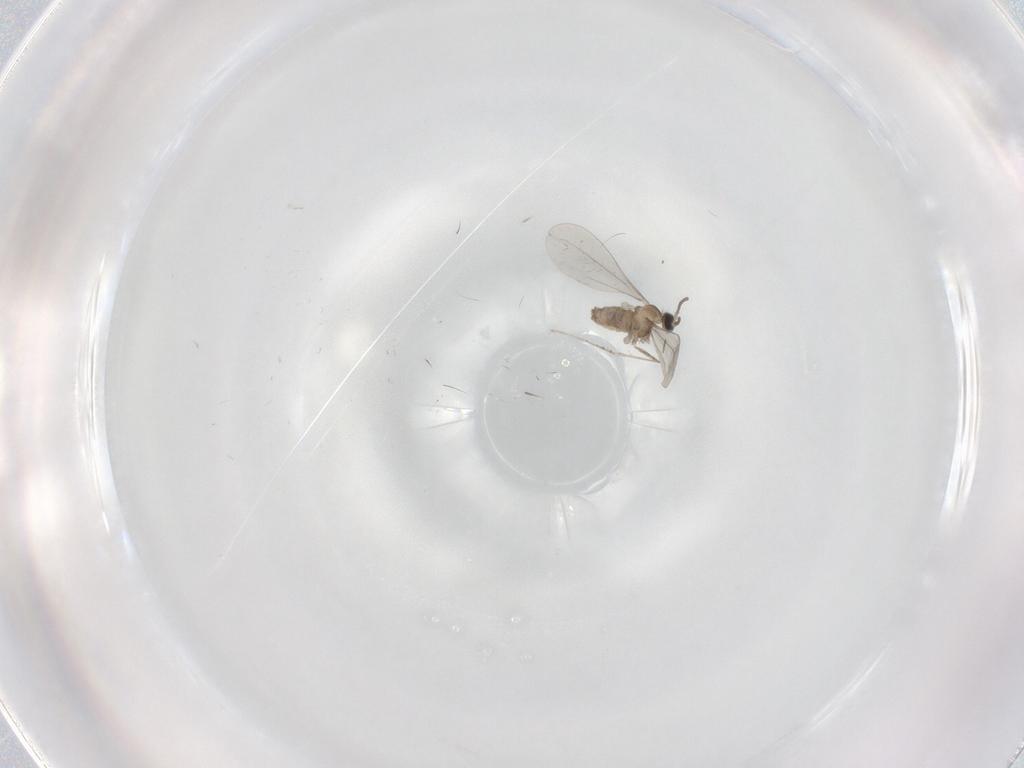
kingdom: Animalia
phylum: Arthropoda
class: Insecta
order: Diptera
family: Cecidomyiidae
